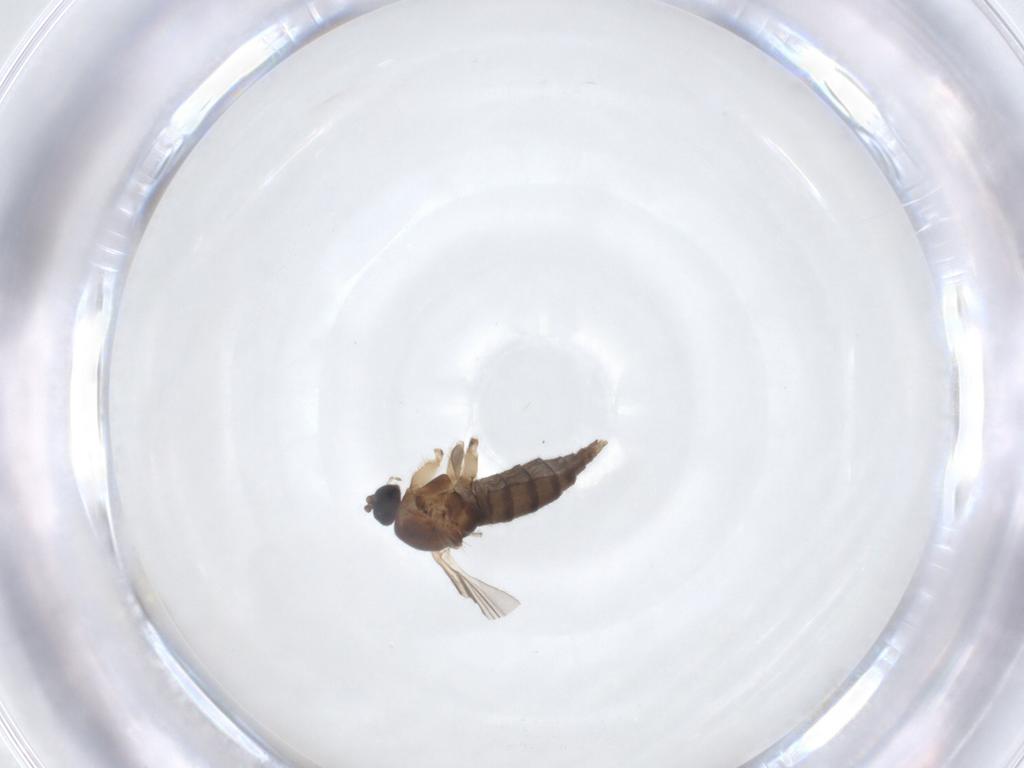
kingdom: Animalia
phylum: Arthropoda
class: Insecta
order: Diptera
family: Sciaridae
